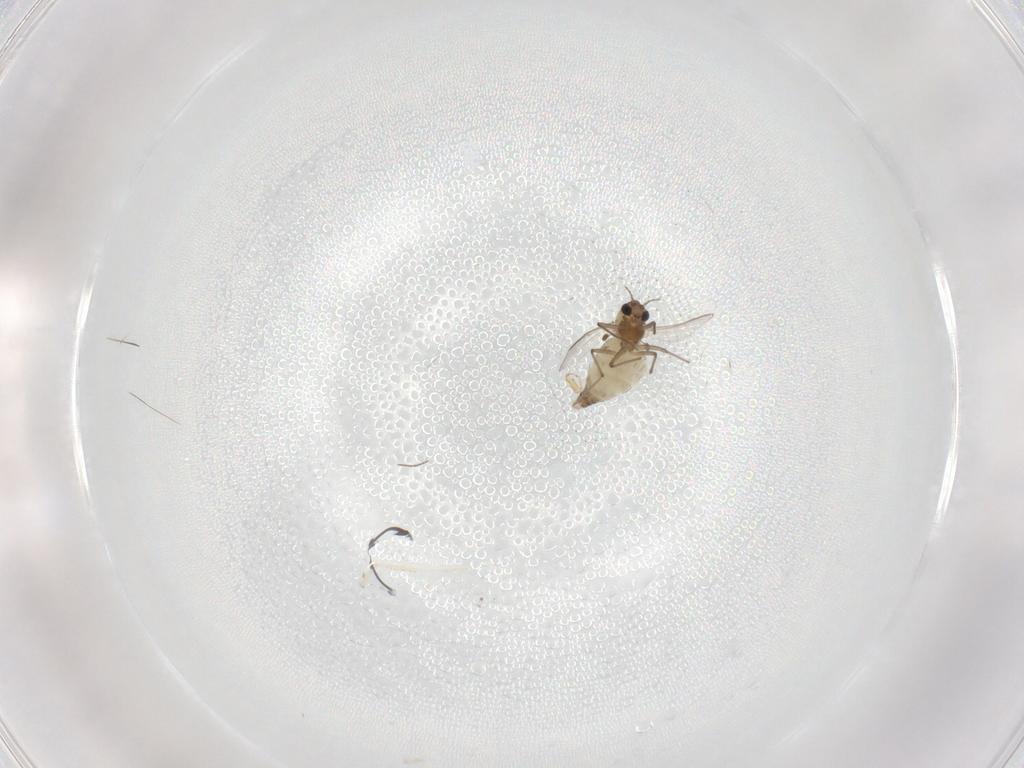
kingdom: Animalia
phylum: Arthropoda
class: Insecta
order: Diptera
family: Chironomidae
